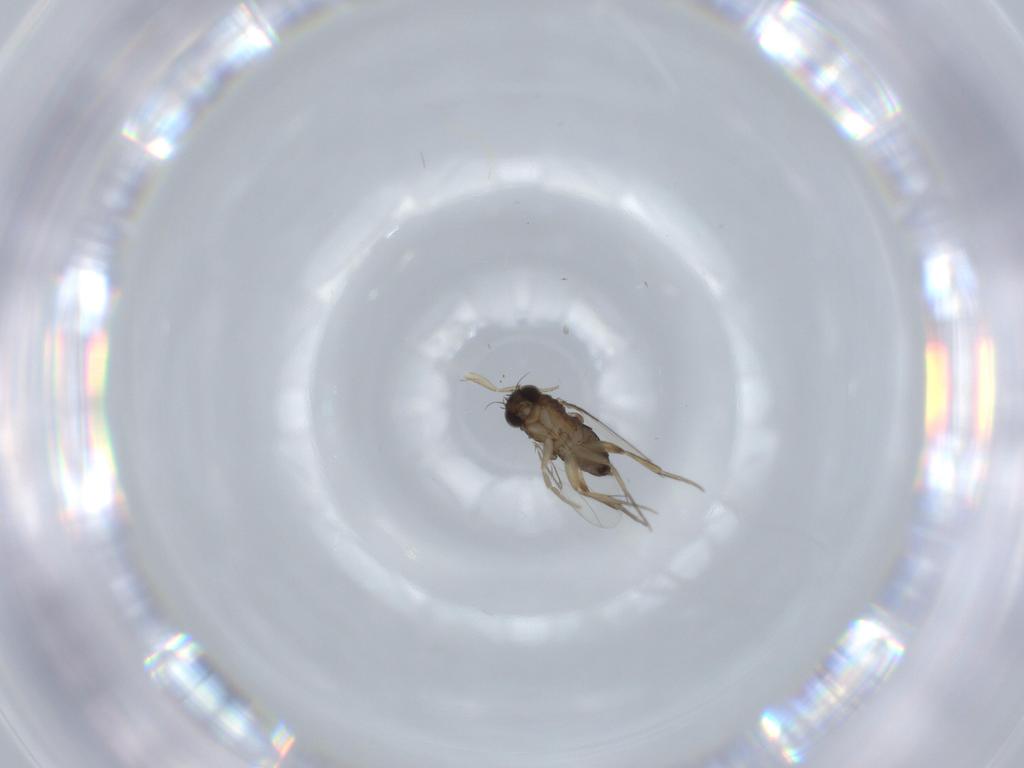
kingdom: Animalia
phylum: Arthropoda
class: Insecta
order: Diptera
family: Phoridae
